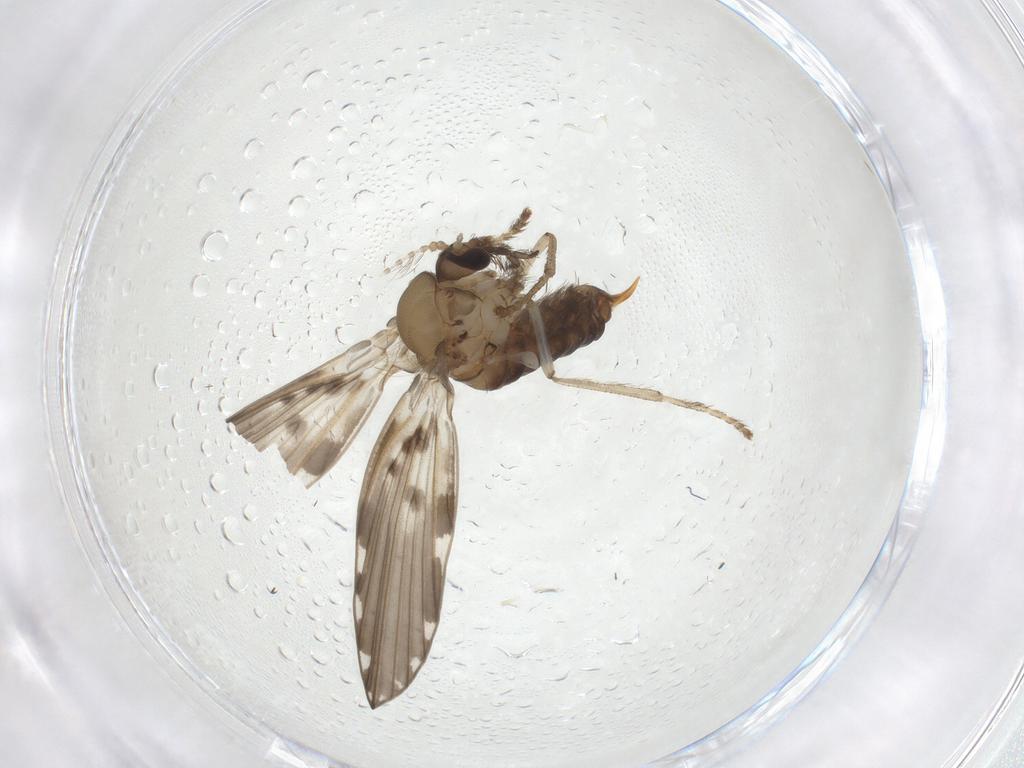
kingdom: Animalia
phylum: Arthropoda
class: Insecta
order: Diptera
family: Psychodidae
